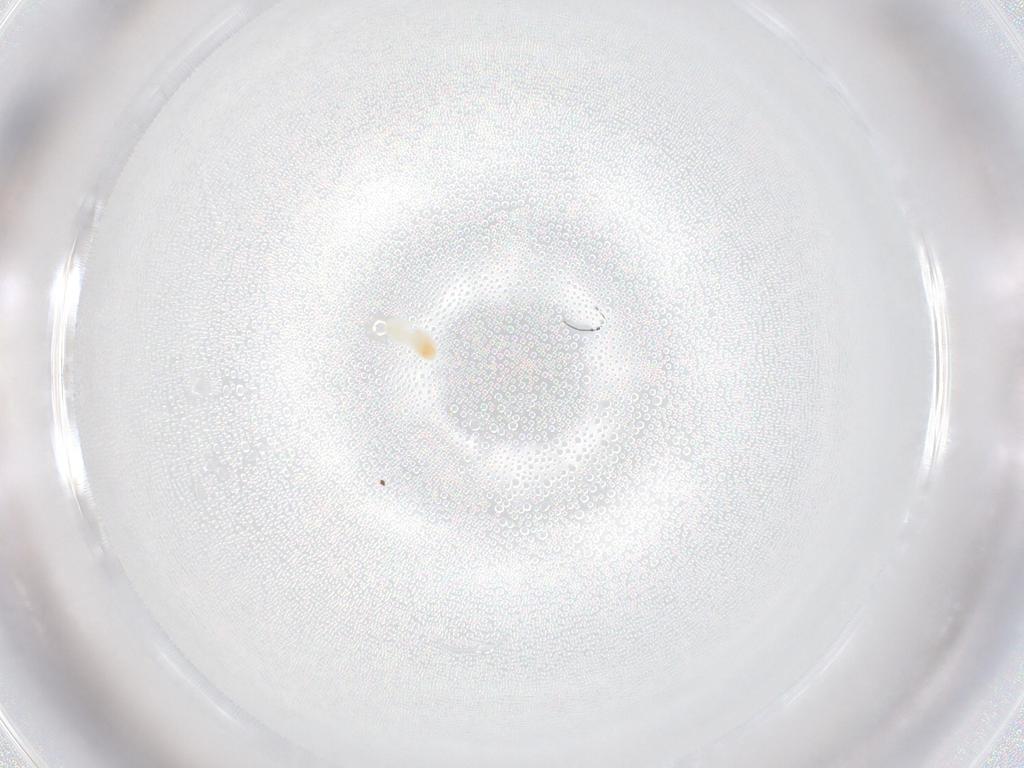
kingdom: Animalia
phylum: Arthropoda
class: Arachnida
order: Trombidiformes
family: Eupodidae
